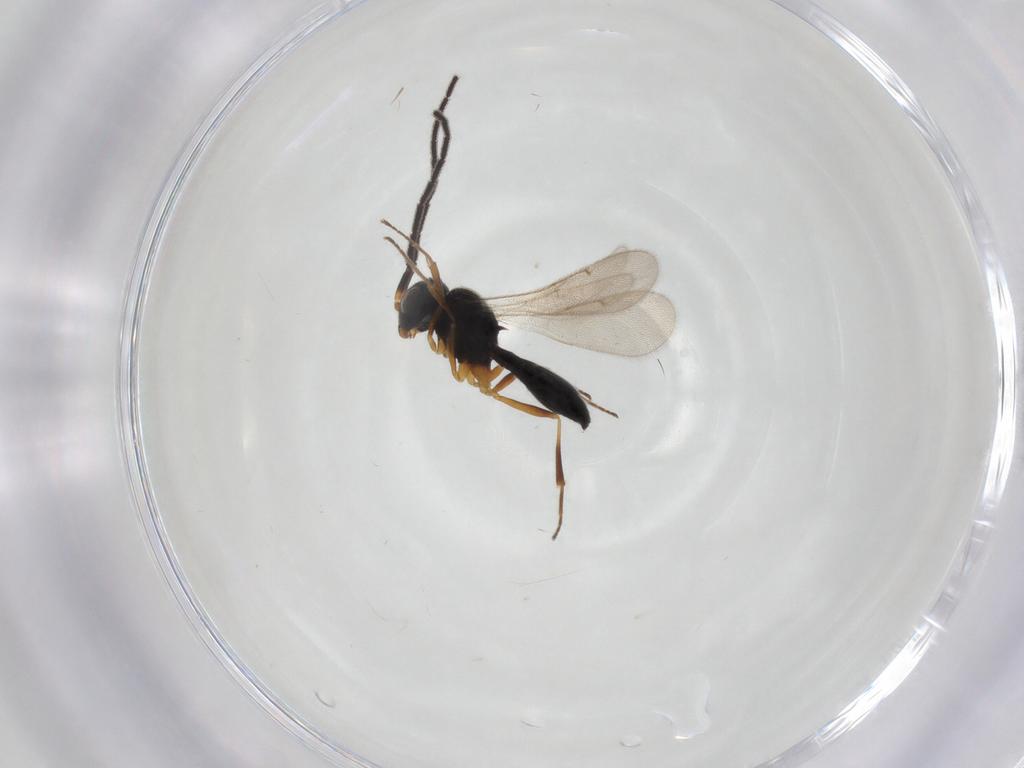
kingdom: Animalia
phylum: Arthropoda
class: Insecta
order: Hymenoptera
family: Scelionidae
